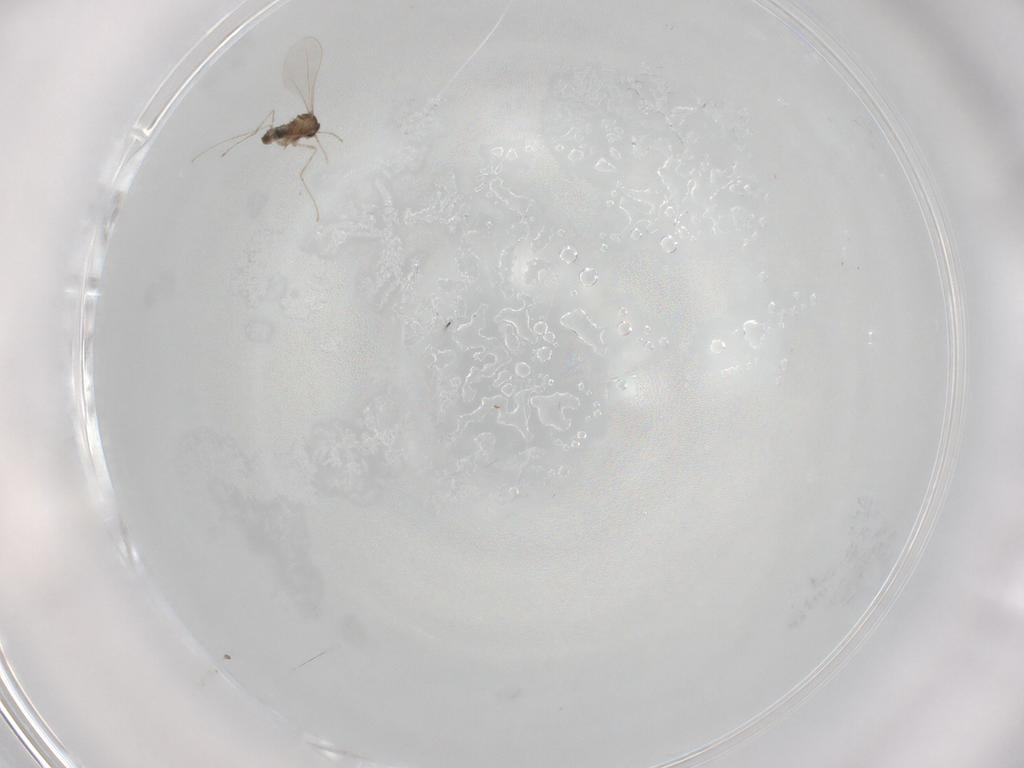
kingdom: Animalia
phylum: Arthropoda
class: Insecta
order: Diptera
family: Cecidomyiidae
